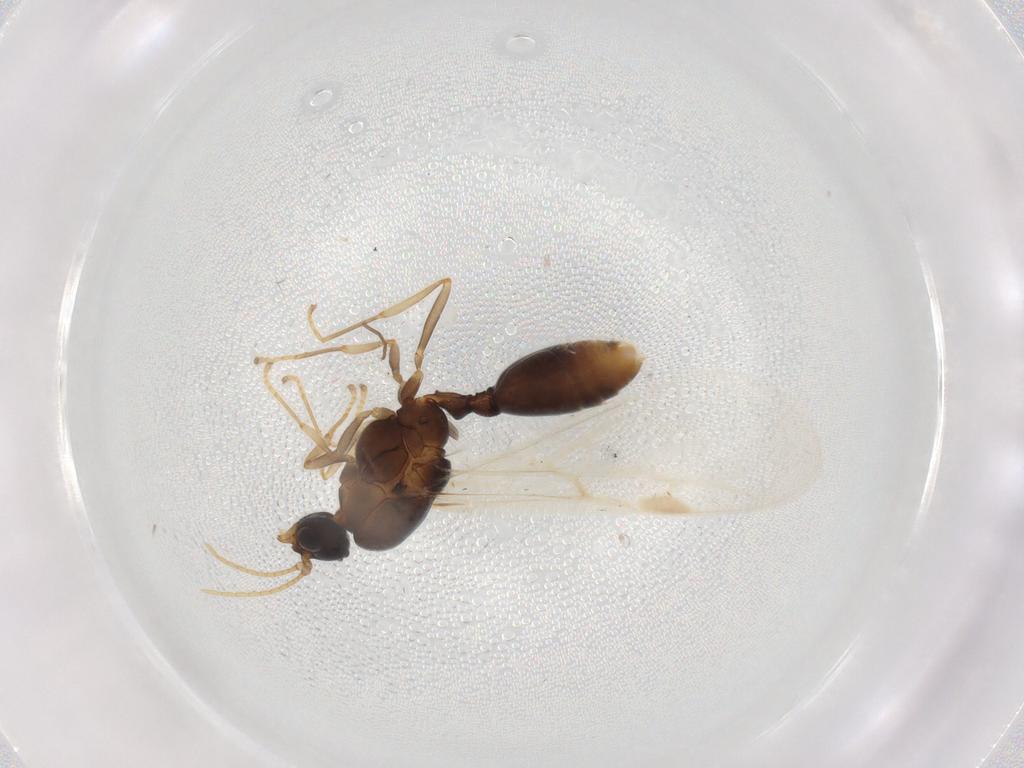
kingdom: Animalia
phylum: Arthropoda
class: Insecta
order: Hymenoptera
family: Formicidae
